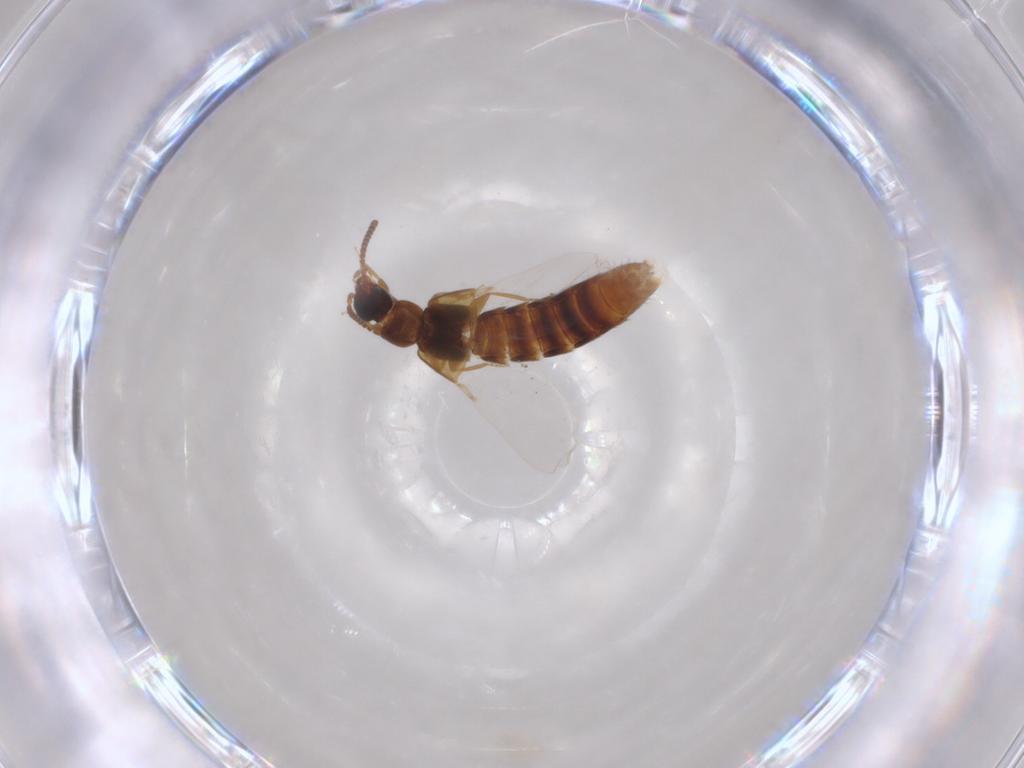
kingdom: Animalia
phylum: Arthropoda
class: Insecta
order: Coleoptera
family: Staphylinidae
